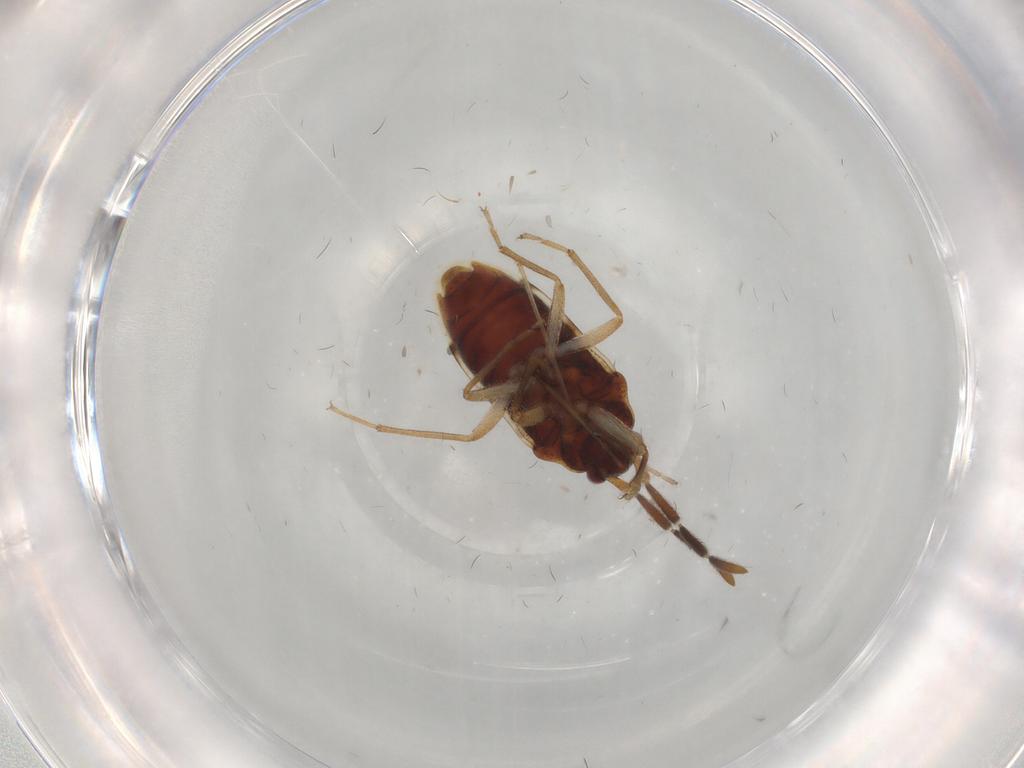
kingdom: Animalia
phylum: Arthropoda
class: Insecta
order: Hemiptera
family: Rhyparochromidae
